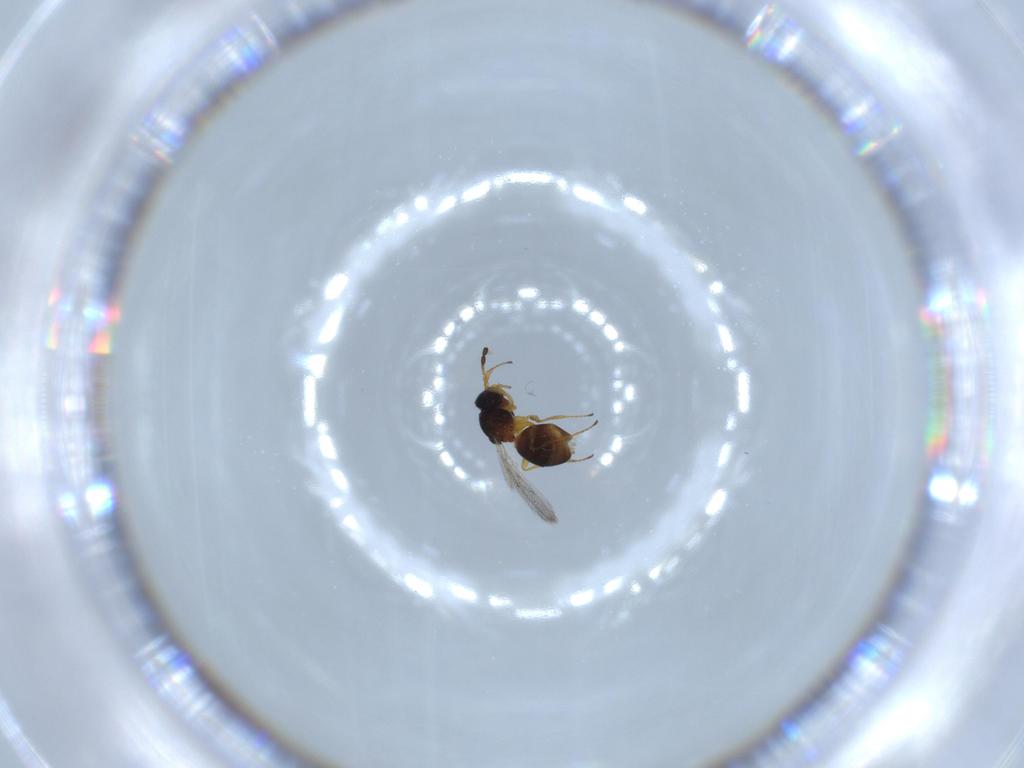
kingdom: Animalia
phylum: Arthropoda
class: Insecta
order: Hymenoptera
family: Figitidae
